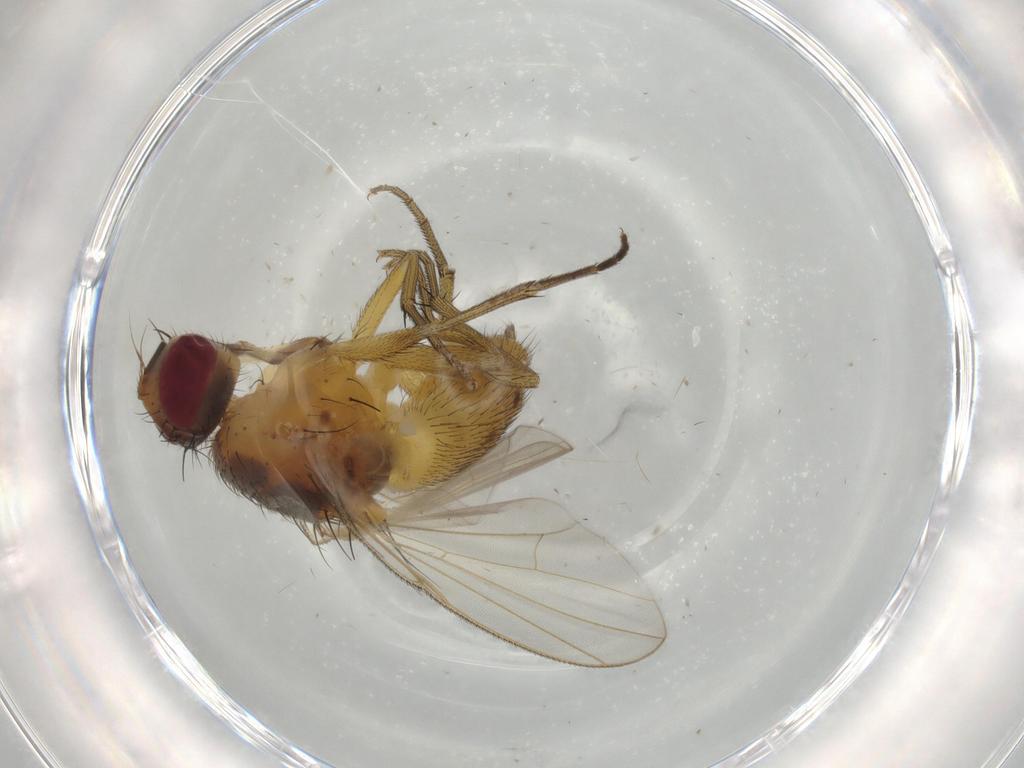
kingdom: Animalia
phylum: Arthropoda
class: Insecta
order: Diptera
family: Muscidae
